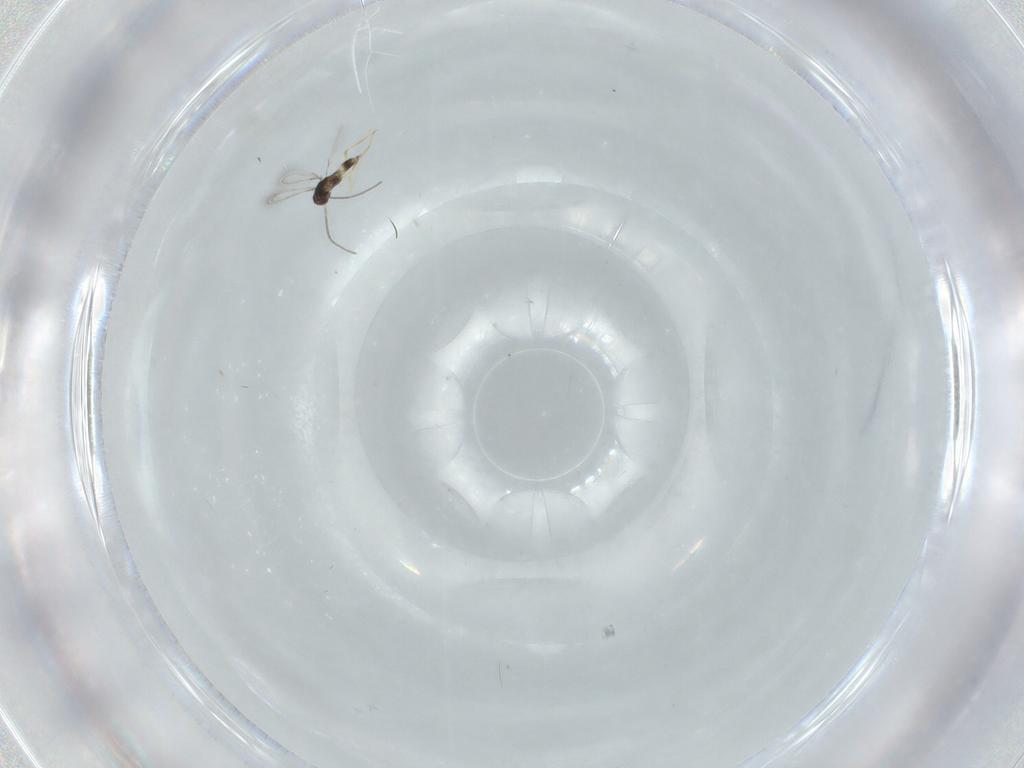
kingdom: Animalia
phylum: Arthropoda
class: Insecta
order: Hymenoptera
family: Mymaridae
